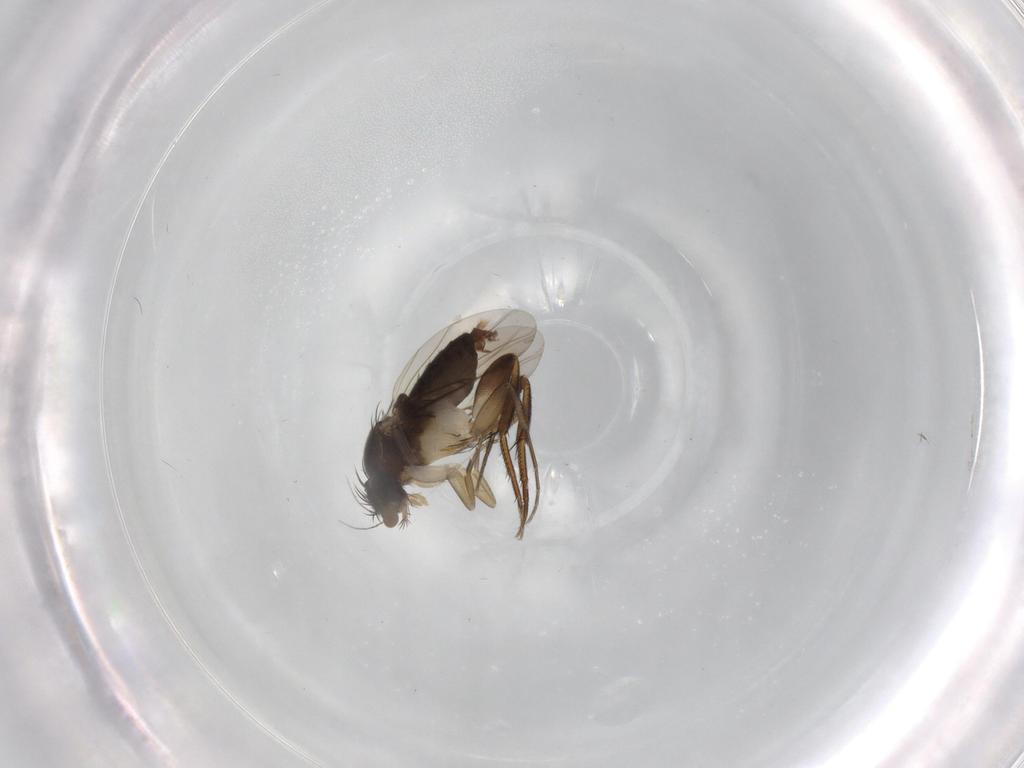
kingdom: Animalia
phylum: Arthropoda
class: Insecta
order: Diptera
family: Phoridae
